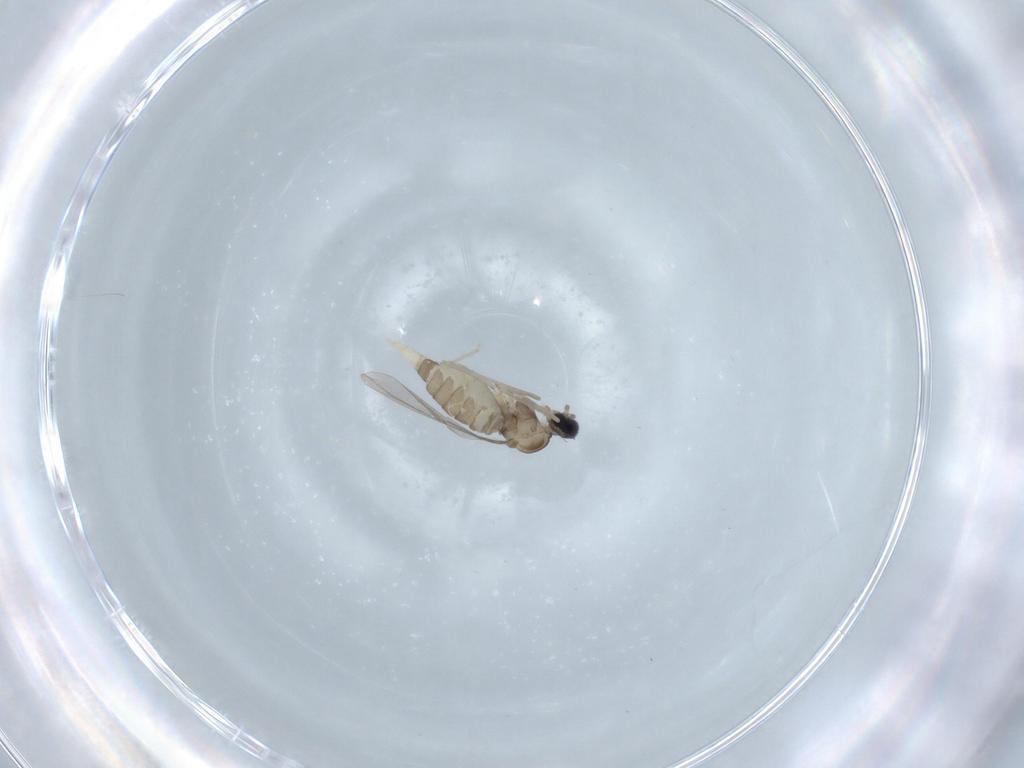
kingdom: Animalia
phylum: Arthropoda
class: Insecta
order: Diptera
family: Cecidomyiidae
